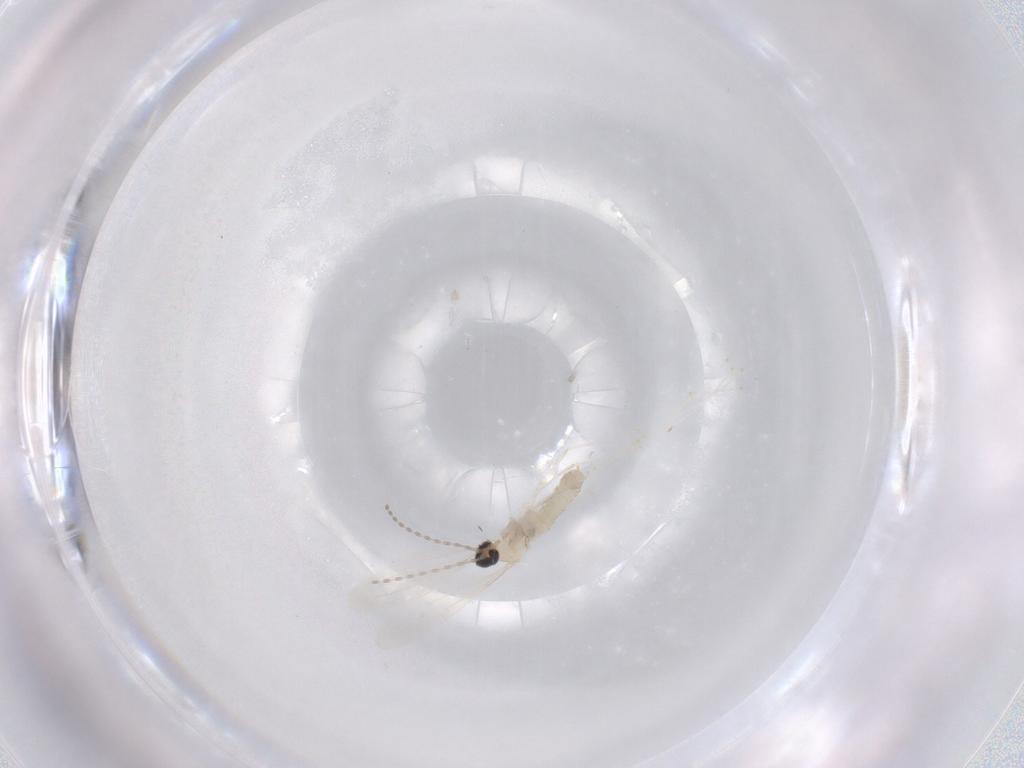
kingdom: Animalia
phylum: Arthropoda
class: Insecta
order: Diptera
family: Cecidomyiidae
